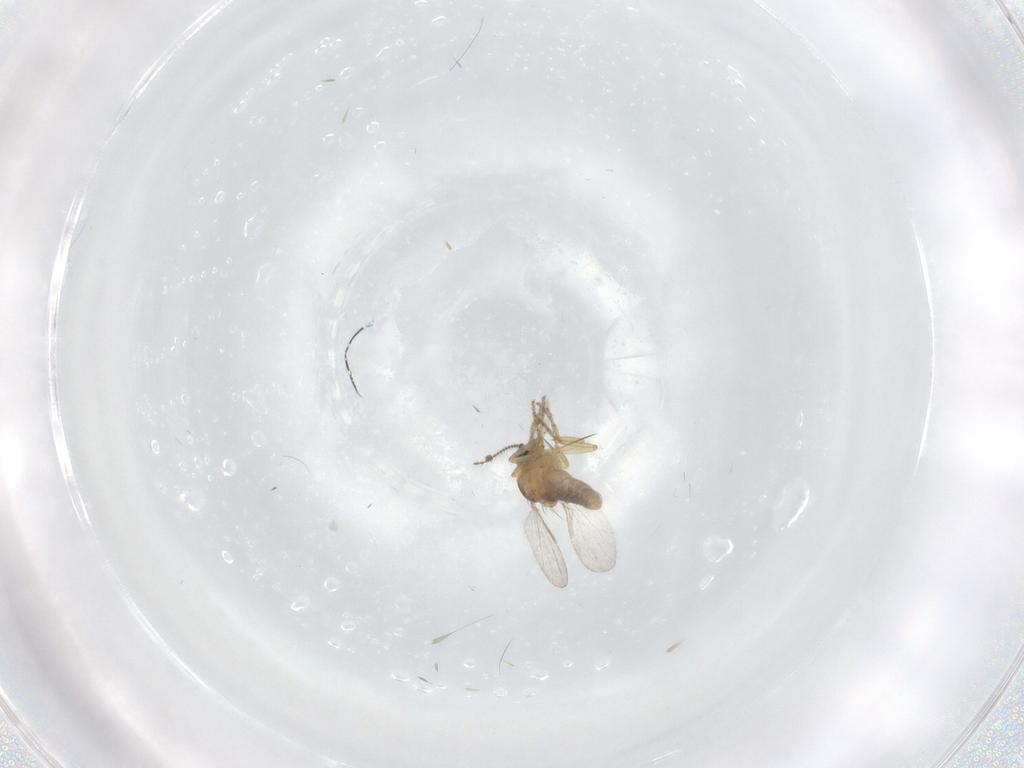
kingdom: Animalia
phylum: Arthropoda
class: Insecta
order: Diptera
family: Ceratopogonidae
